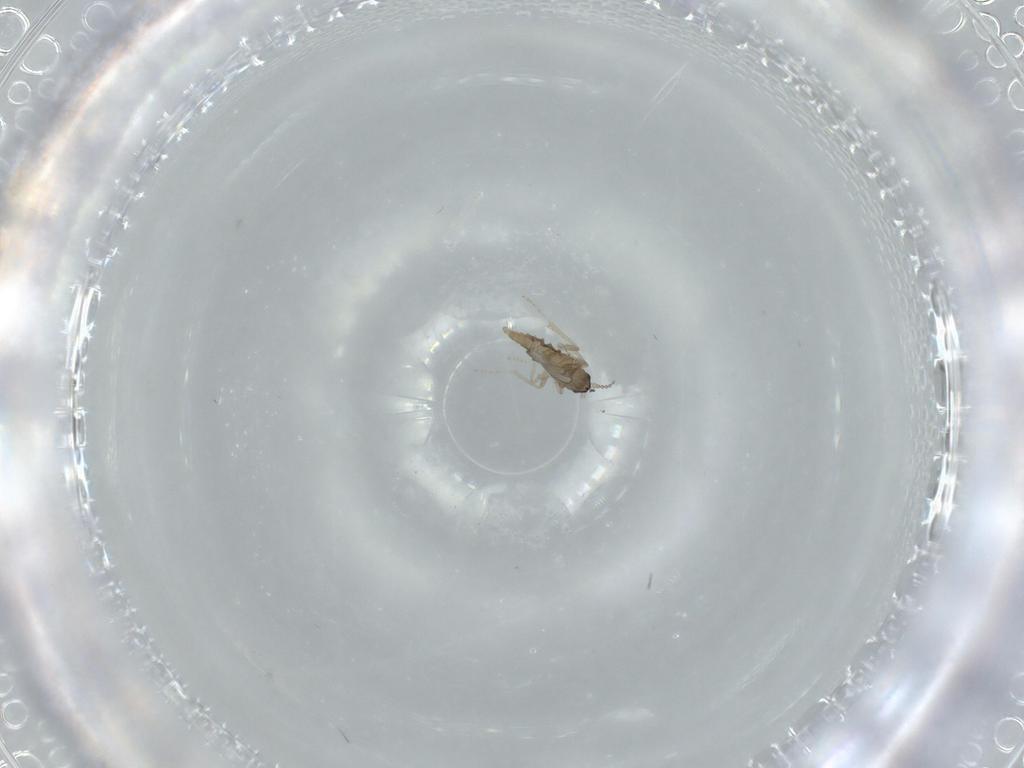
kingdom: Animalia
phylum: Arthropoda
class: Insecta
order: Diptera
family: Cecidomyiidae
